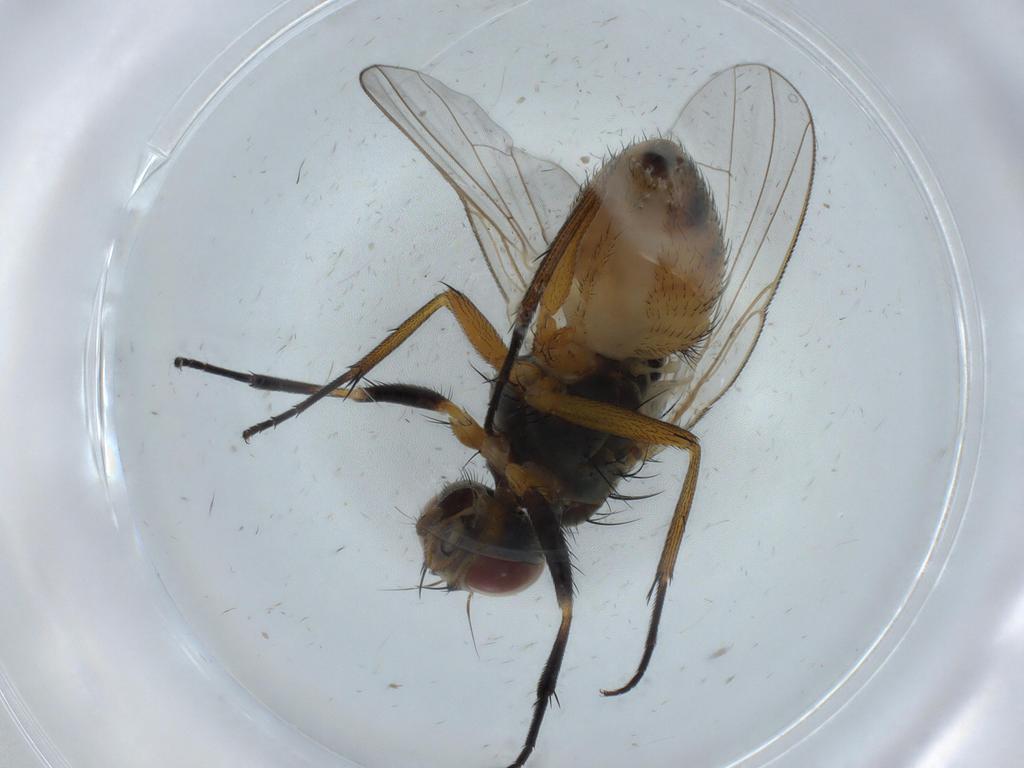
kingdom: Animalia
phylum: Arthropoda
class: Insecta
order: Diptera
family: Muscidae
